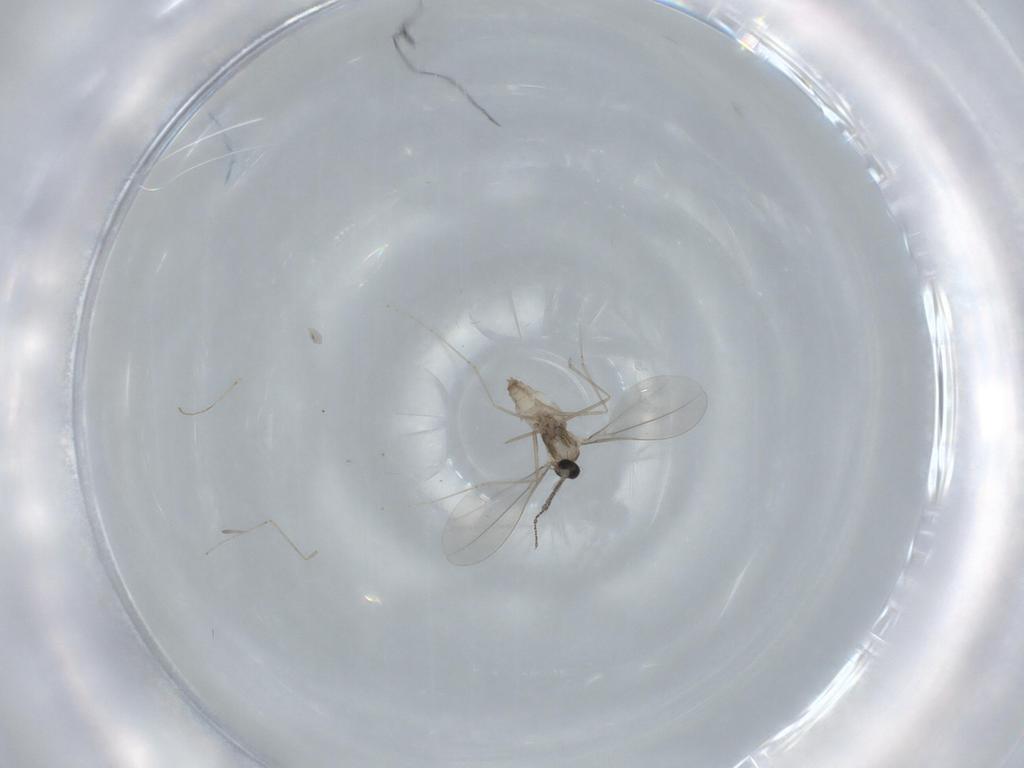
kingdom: Animalia
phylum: Arthropoda
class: Insecta
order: Diptera
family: Cecidomyiidae
